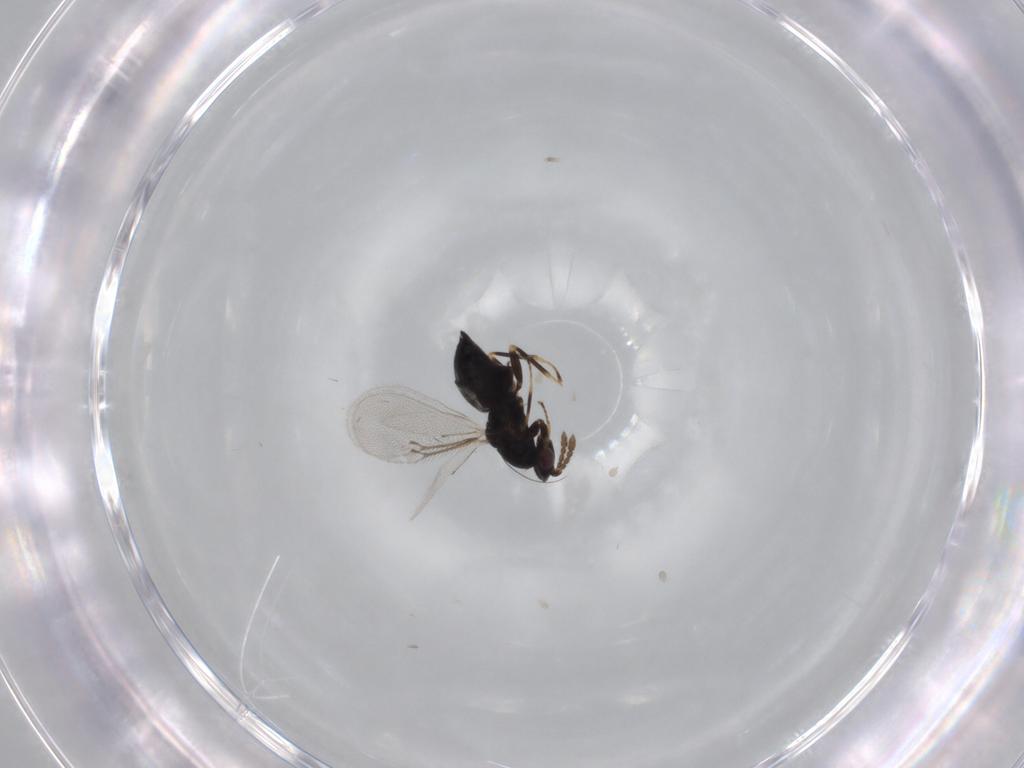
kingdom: Animalia
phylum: Arthropoda
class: Insecta
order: Hymenoptera
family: Eulophidae
